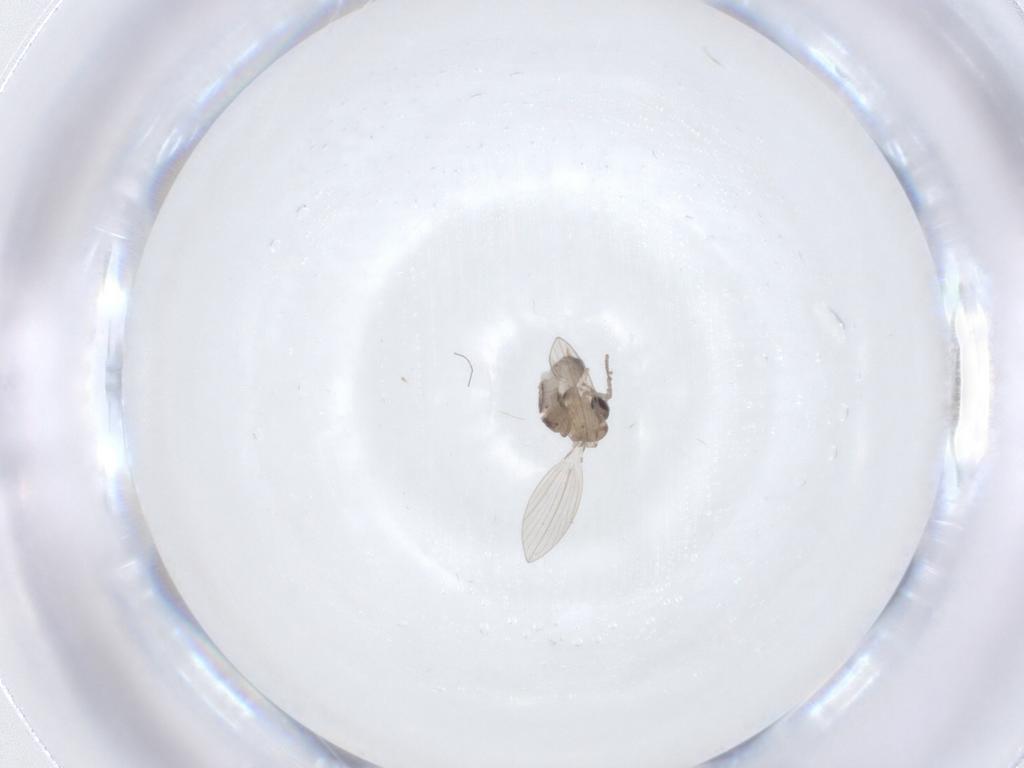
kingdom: Animalia
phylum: Arthropoda
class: Insecta
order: Diptera
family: Psychodidae
